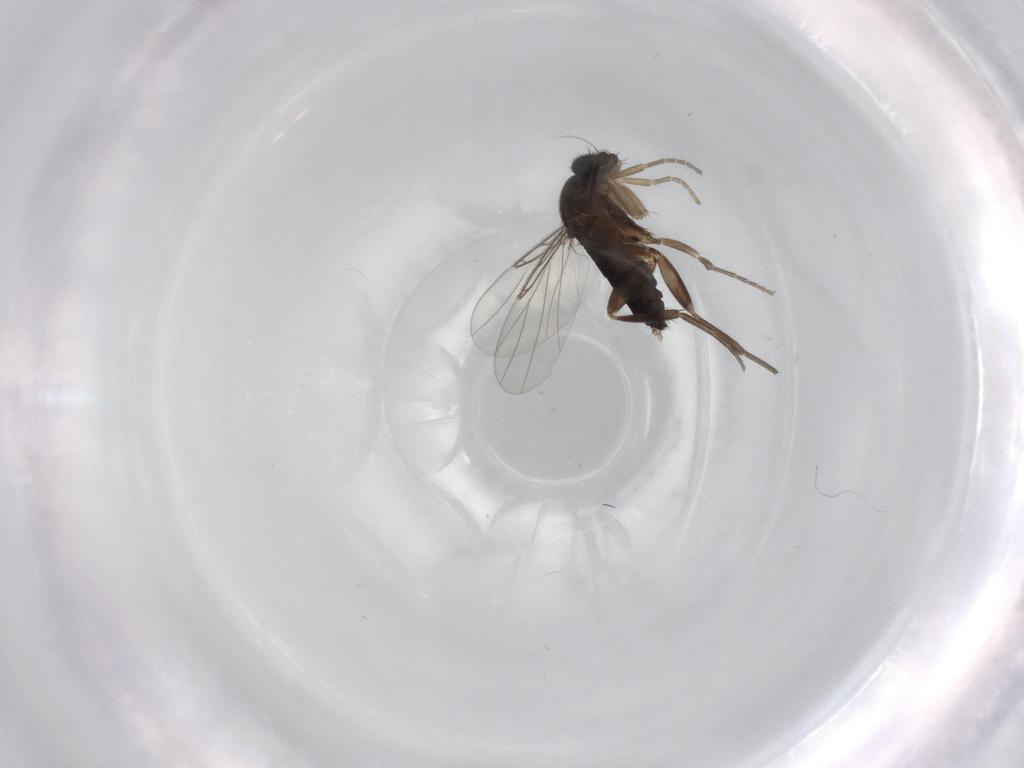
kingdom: Animalia
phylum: Arthropoda
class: Insecta
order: Diptera
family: Phoridae
